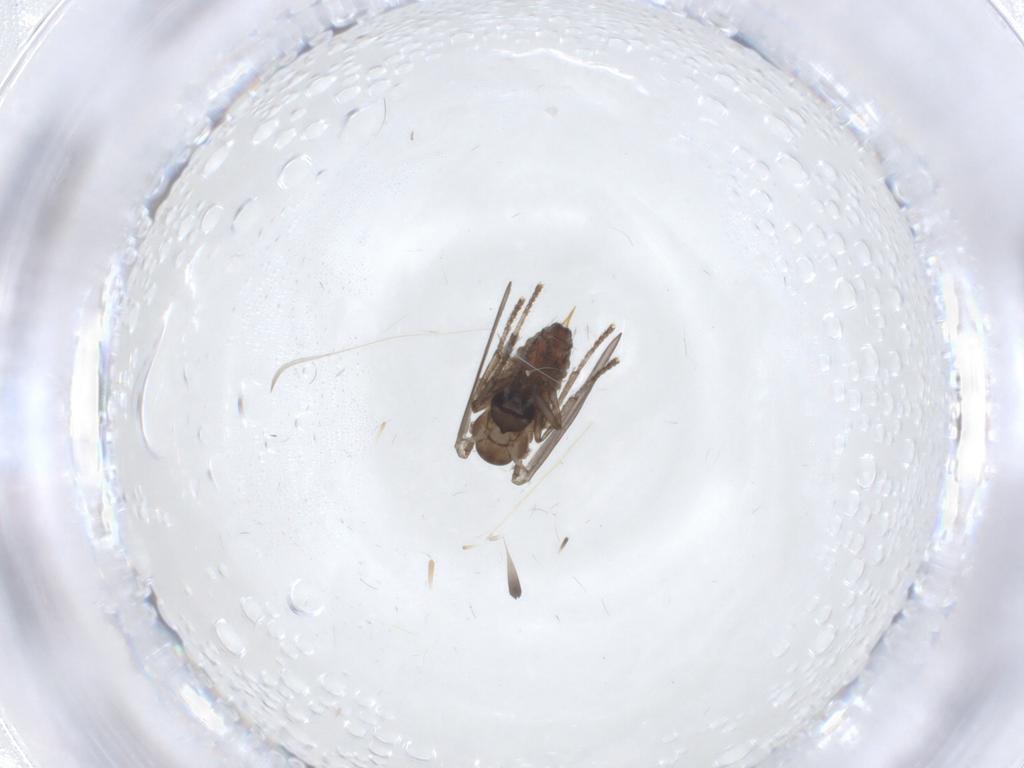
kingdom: Animalia
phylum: Arthropoda
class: Insecta
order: Diptera
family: Psychodidae
